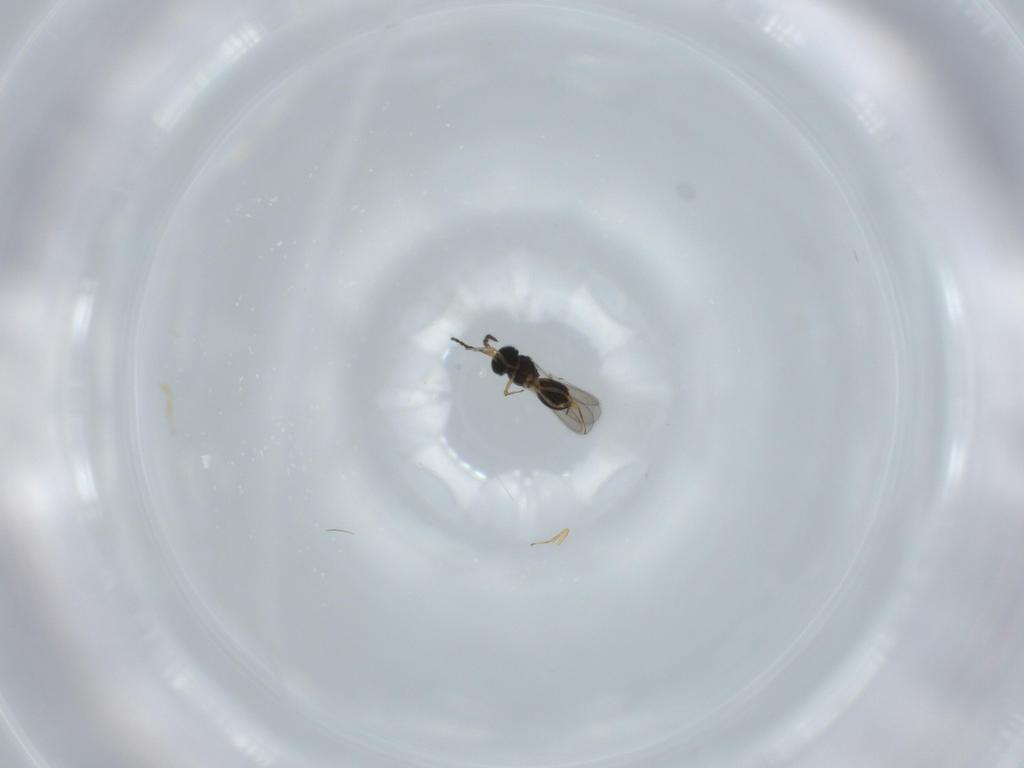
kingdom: Animalia
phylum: Arthropoda
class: Insecta
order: Hymenoptera
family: Scelionidae
